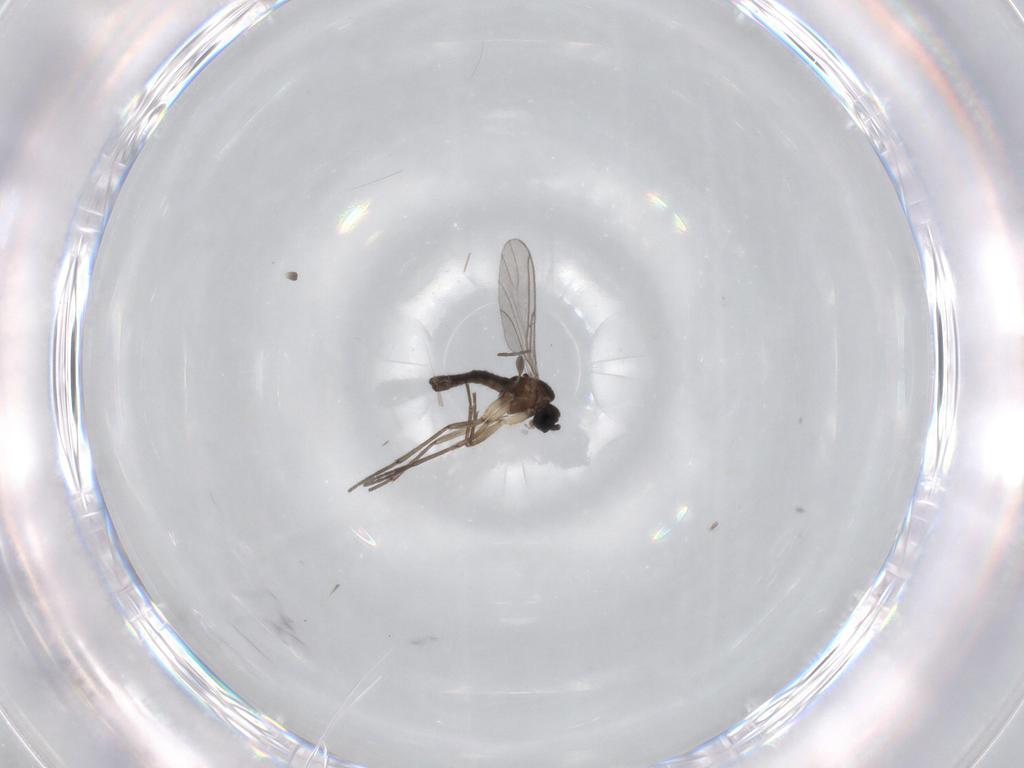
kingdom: Animalia
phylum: Arthropoda
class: Insecta
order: Diptera
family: Sciaridae
